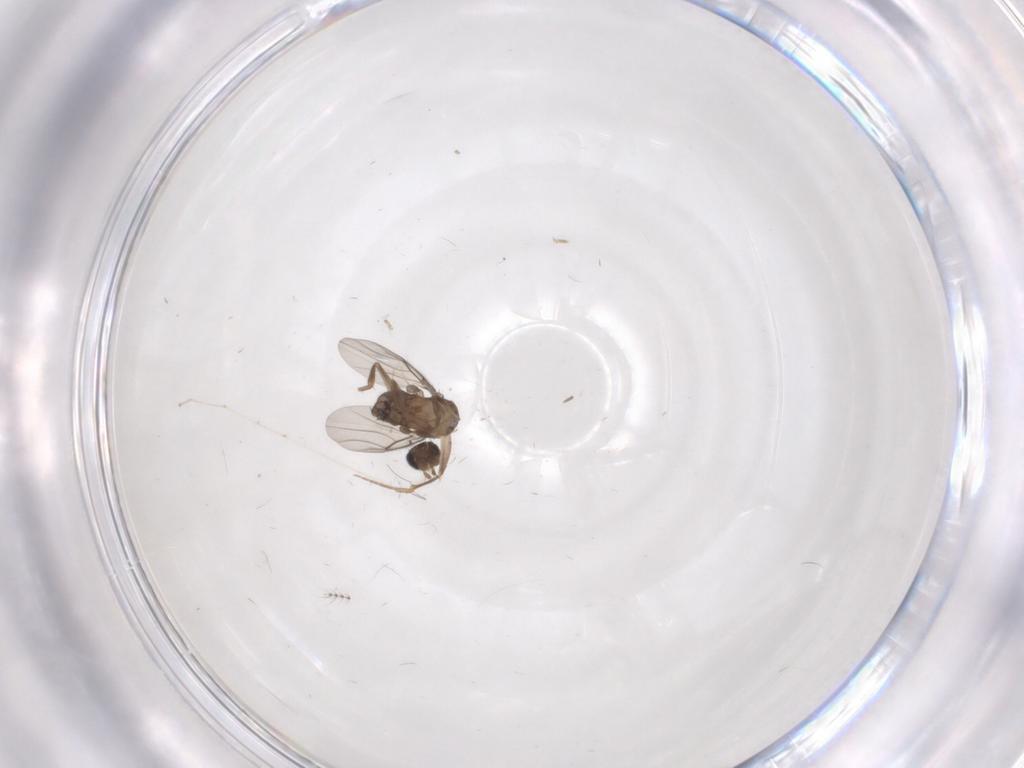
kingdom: Animalia
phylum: Arthropoda
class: Insecta
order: Diptera
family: Phoridae
